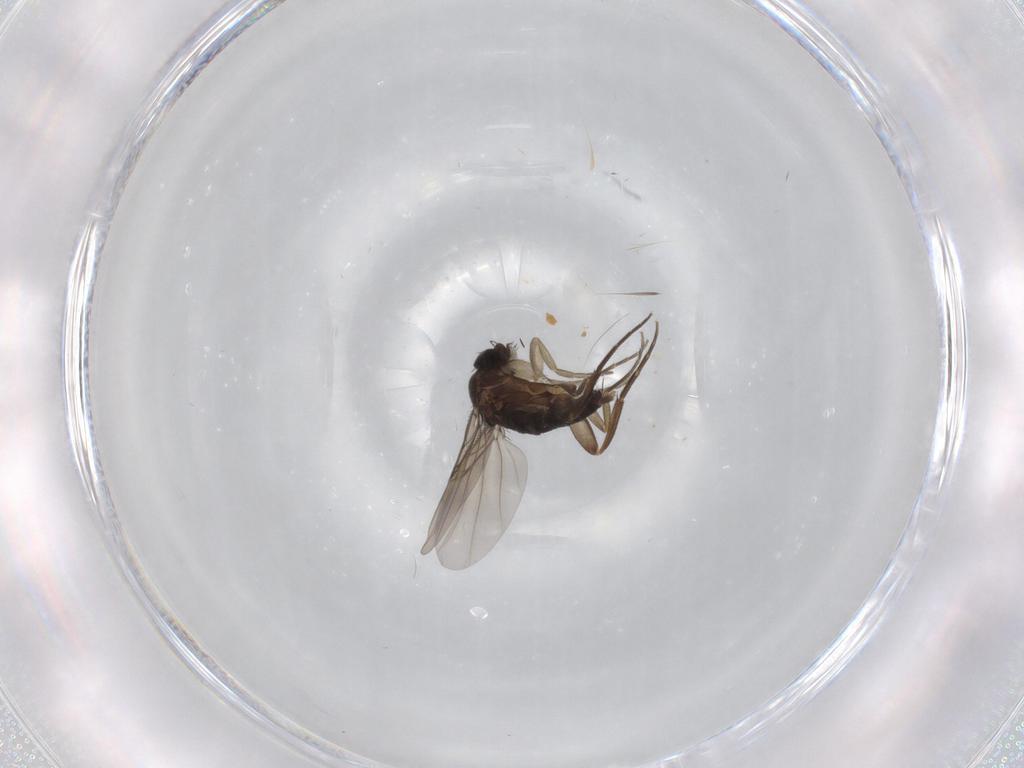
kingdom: Animalia
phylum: Arthropoda
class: Insecta
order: Diptera
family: Phoridae
